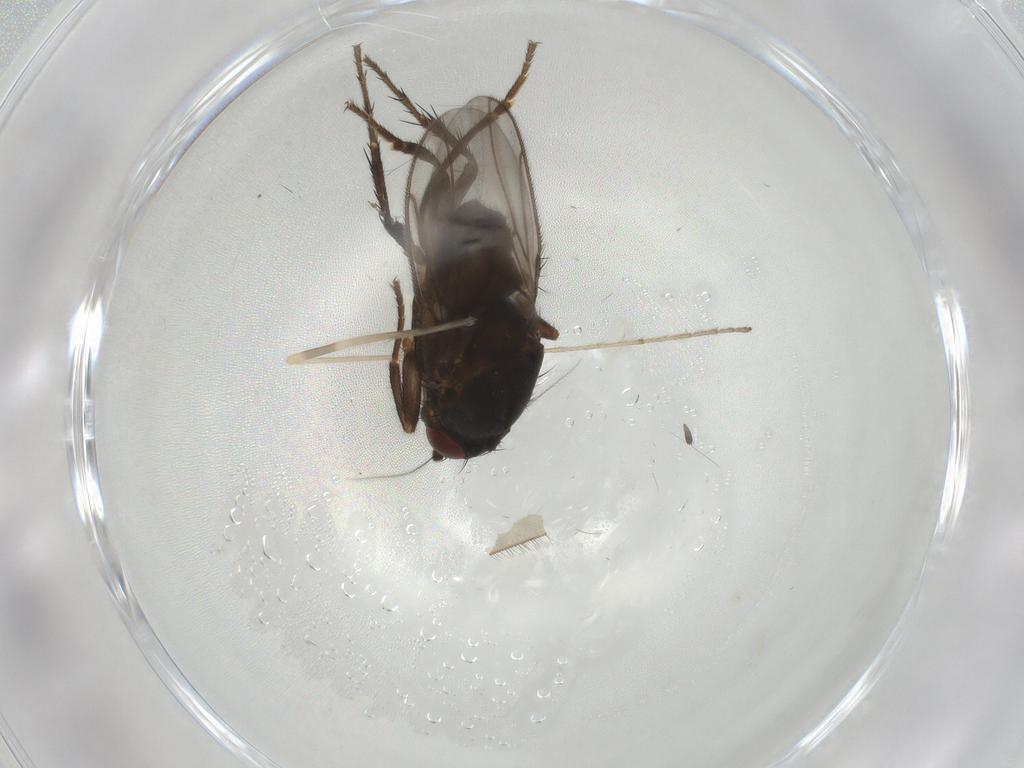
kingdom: Animalia
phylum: Arthropoda
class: Insecta
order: Diptera
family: Sphaeroceridae
